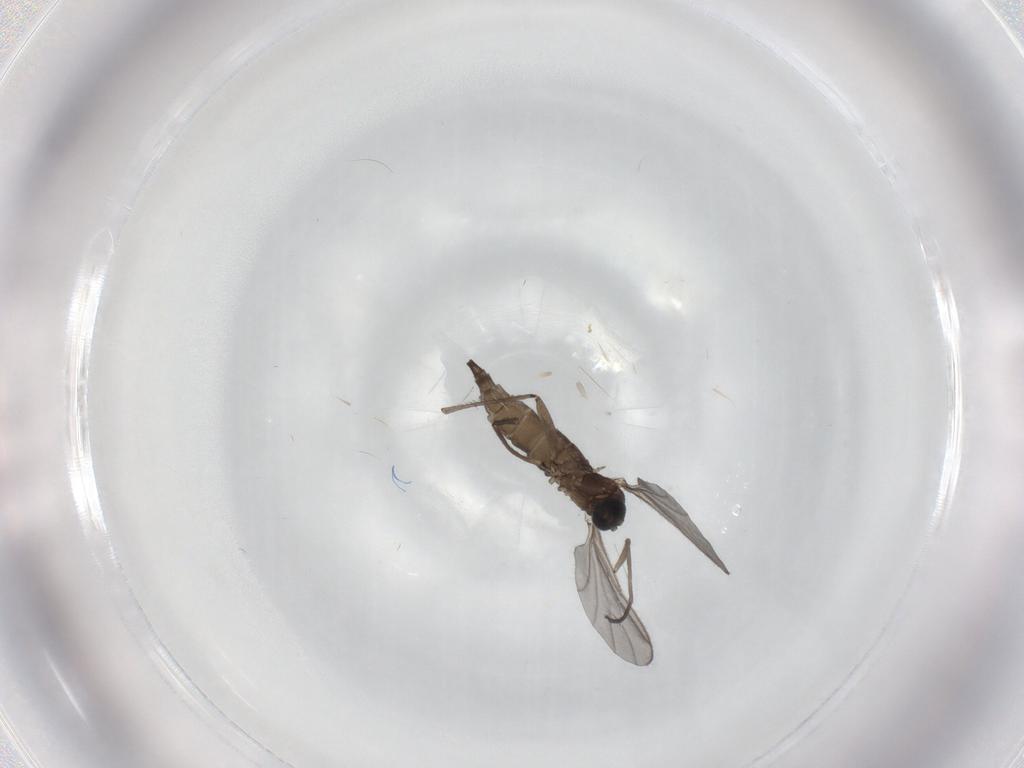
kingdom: Animalia
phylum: Arthropoda
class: Insecta
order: Diptera
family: Sciaridae
